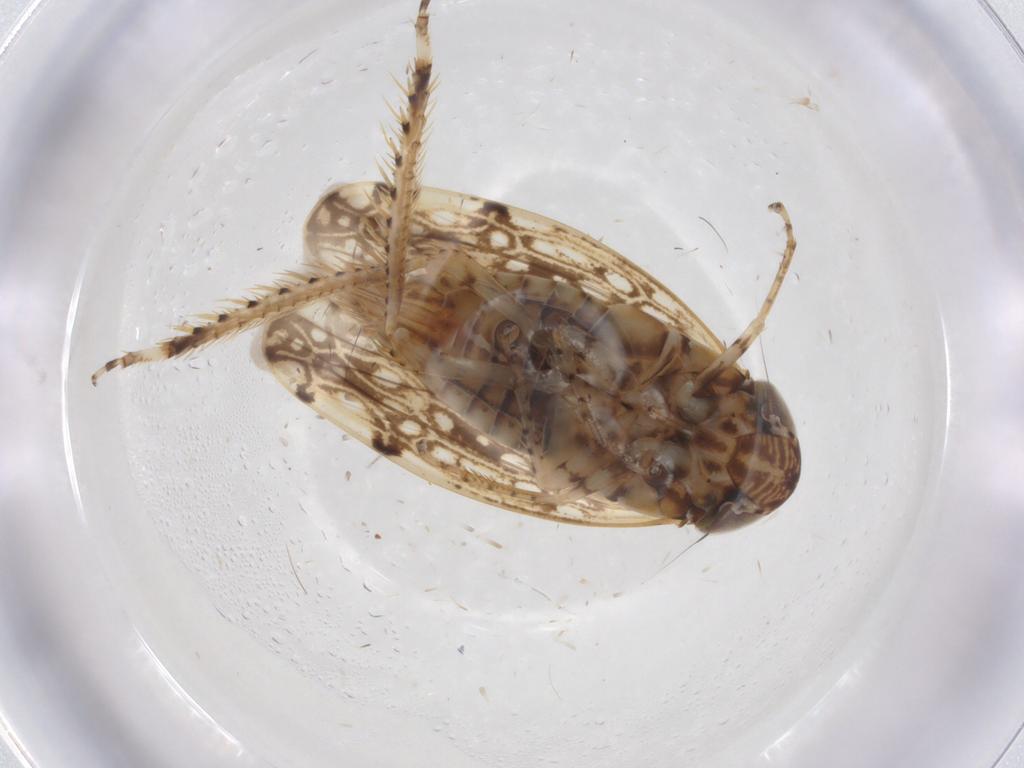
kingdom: Animalia
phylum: Arthropoda
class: Insecta
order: Hemiptera
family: Cicadellidae
